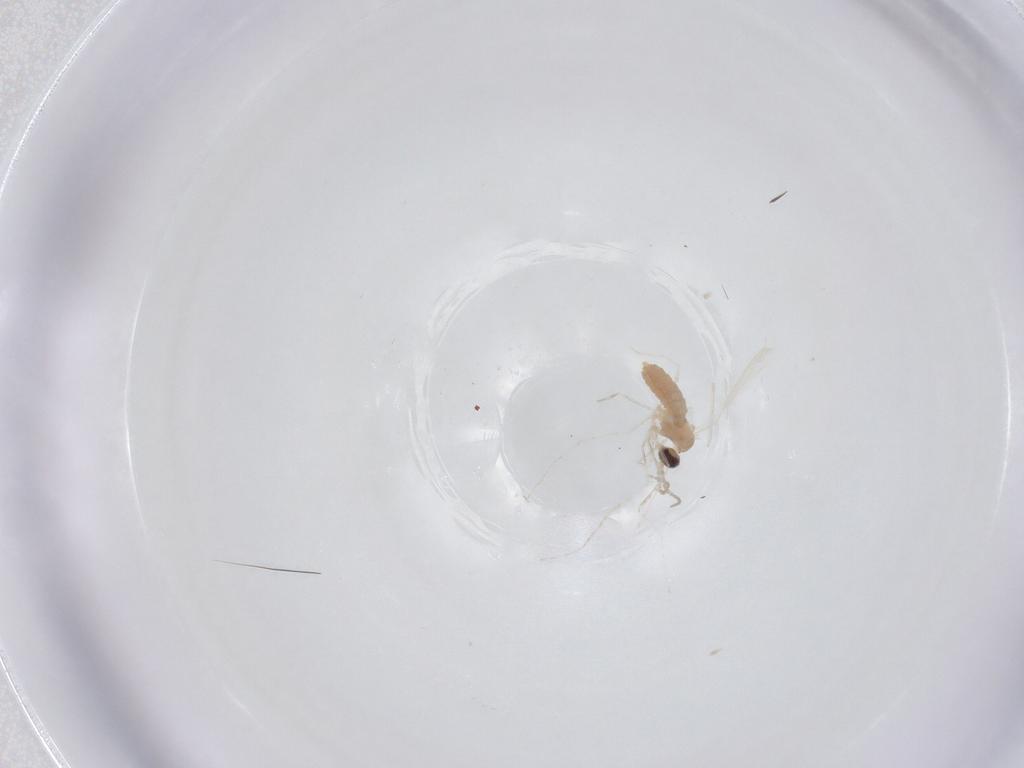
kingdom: Animalia
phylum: Arthropoda
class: Insecta
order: Diptera
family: Cecidomyiidae
